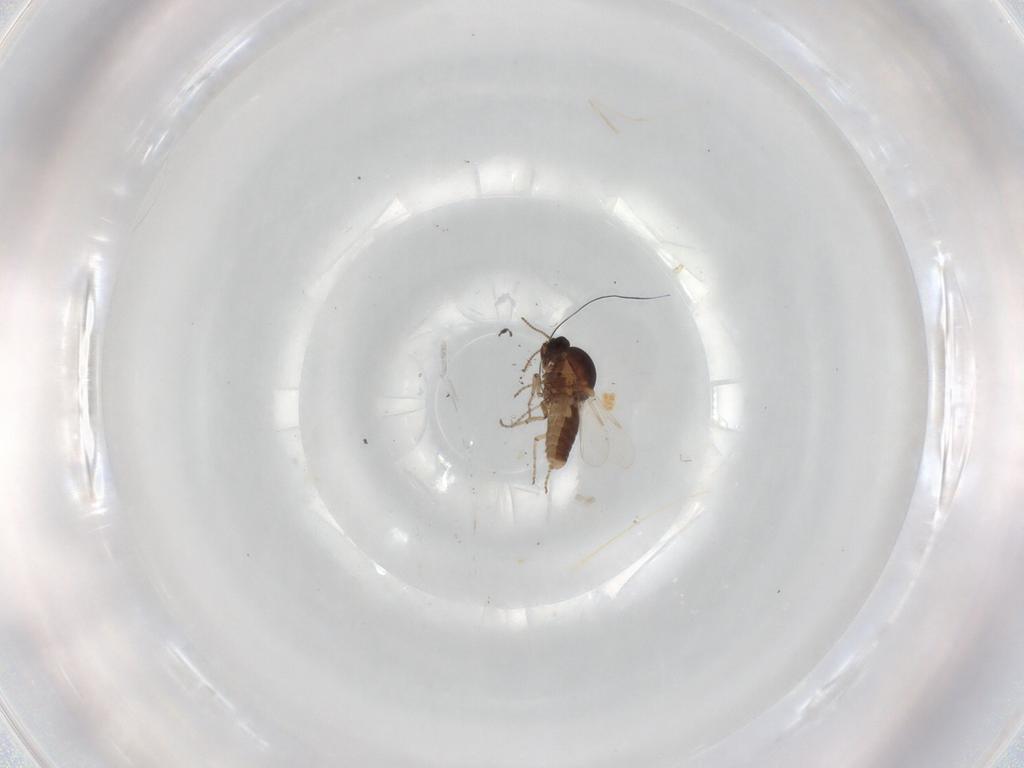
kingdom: Animalia
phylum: Arthropoda
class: Insecta
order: Diptera
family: Ceratopogonidae
